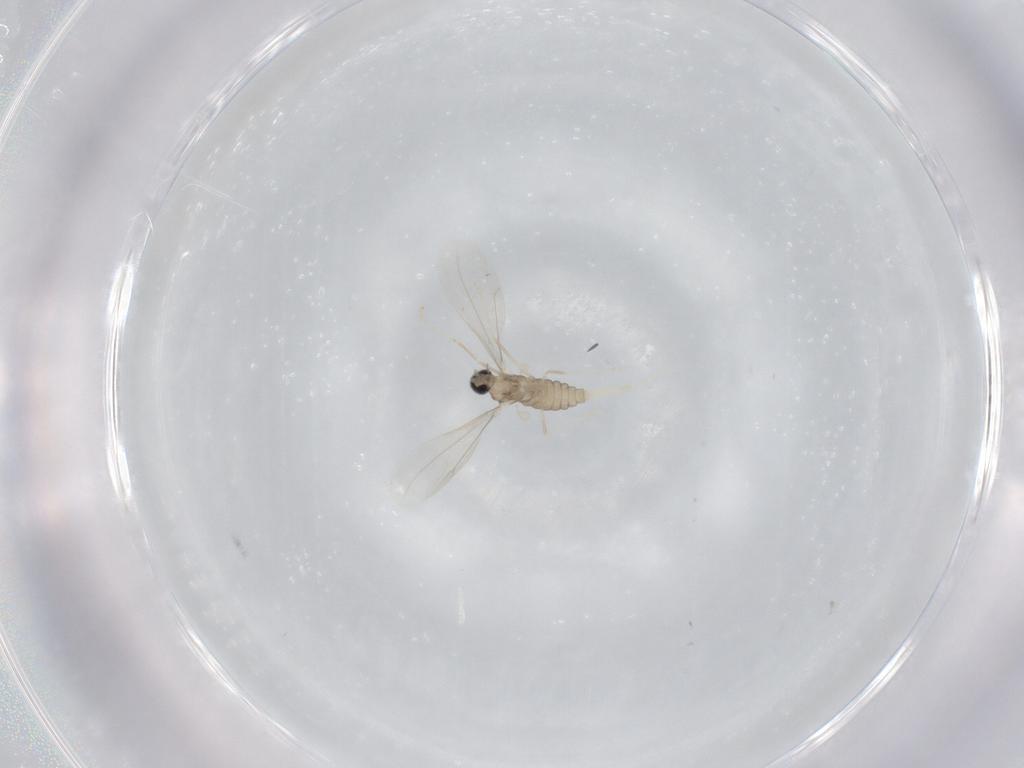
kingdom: Animalia
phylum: Arthropoda
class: Insecta
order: Diptera
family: Cecidomyiidae
